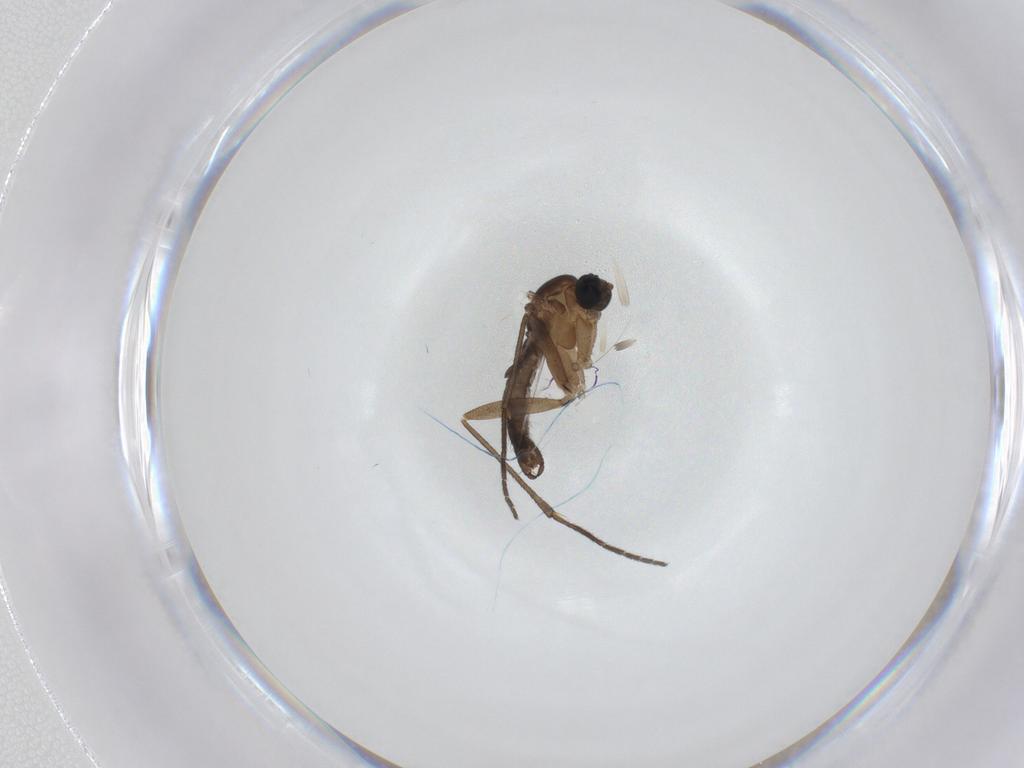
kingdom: Animalia
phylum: Arthropoda
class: Insecta
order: Diptera
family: Sciaridae
